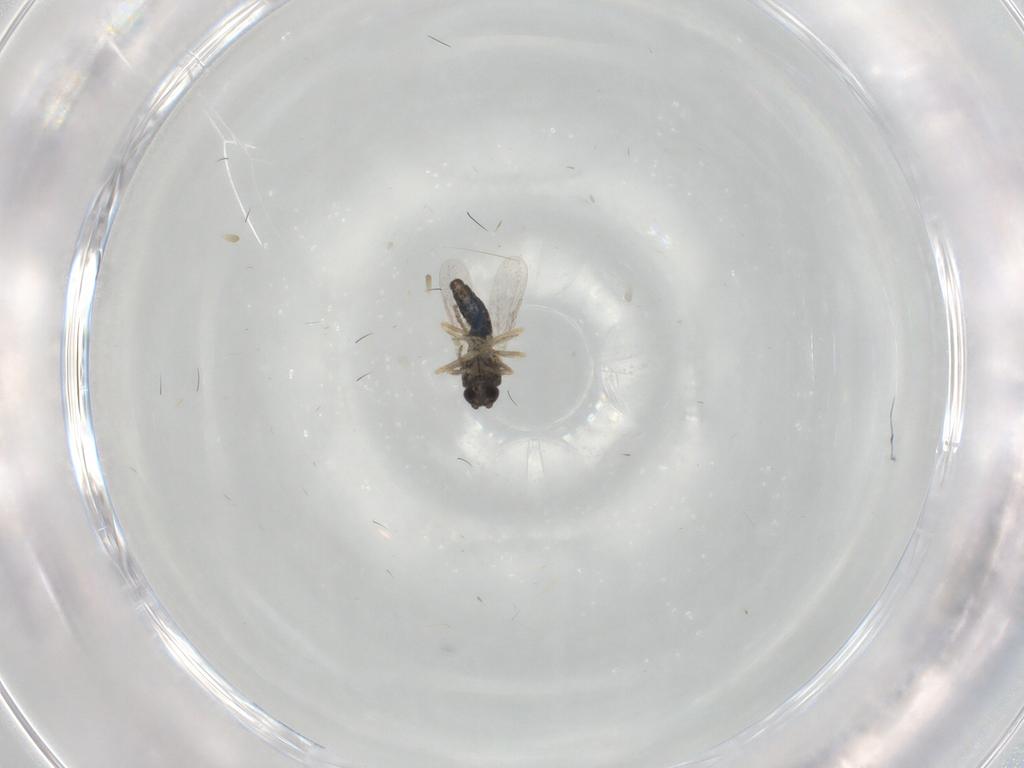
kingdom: Animalia
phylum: Arthropoda
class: Insecta
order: Diptera
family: Ceratopogonidae
